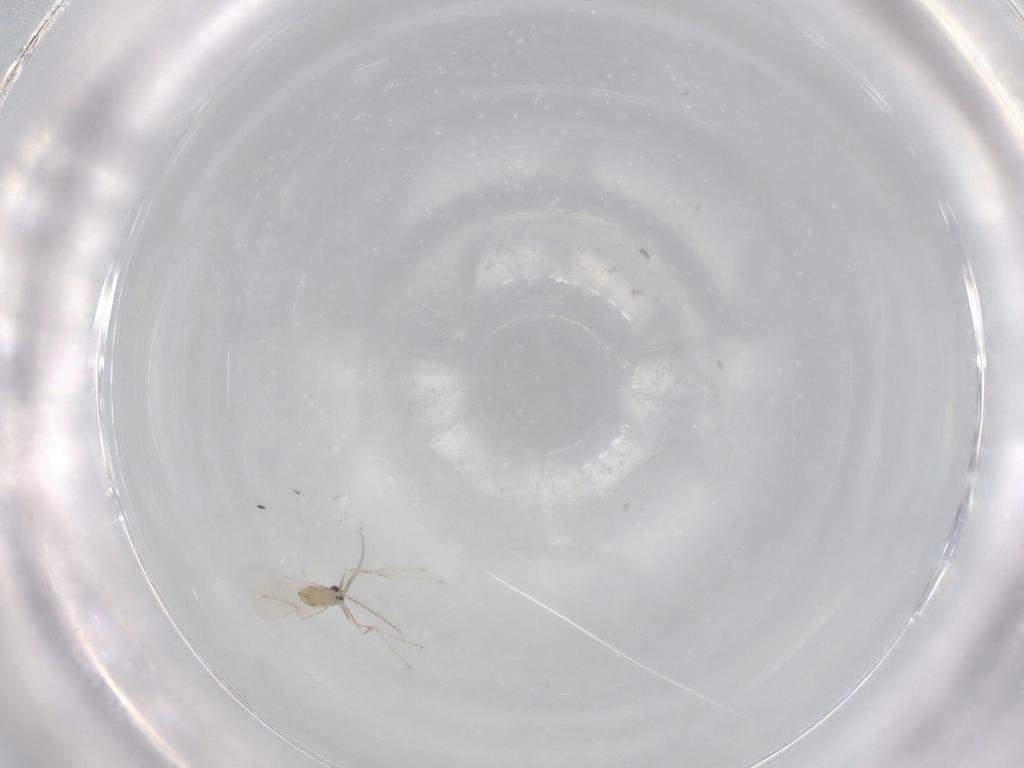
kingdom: Animalia
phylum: Arthropoda
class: Insecta
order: Diptera
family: Cecidomyiidae
